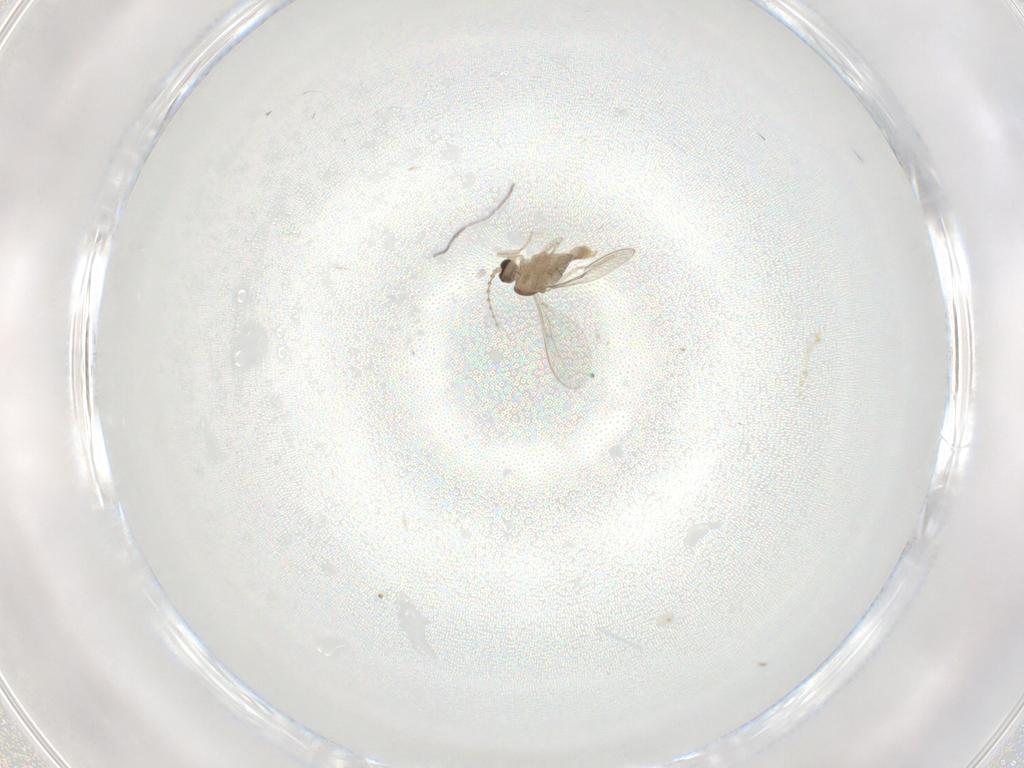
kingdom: Animalia
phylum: Arthropoda
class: Insecta
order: Diptera
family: Cecidomyiidae
